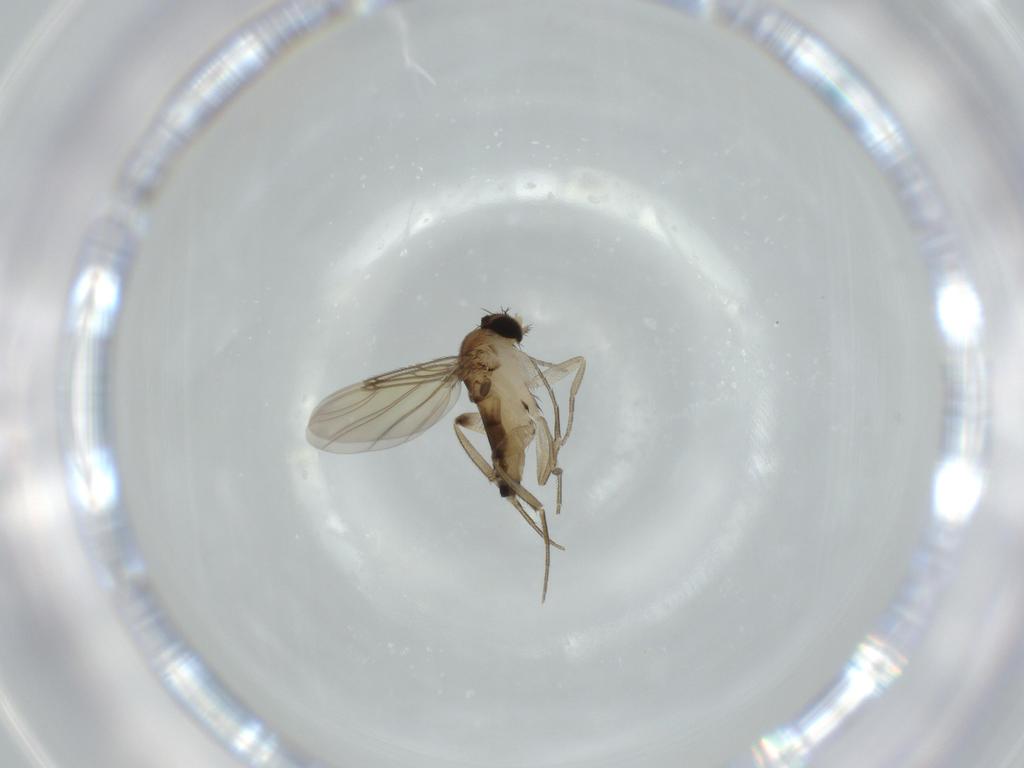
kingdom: Animalia
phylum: Arthropoda
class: Insecta
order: Diptera
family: Phoridae
